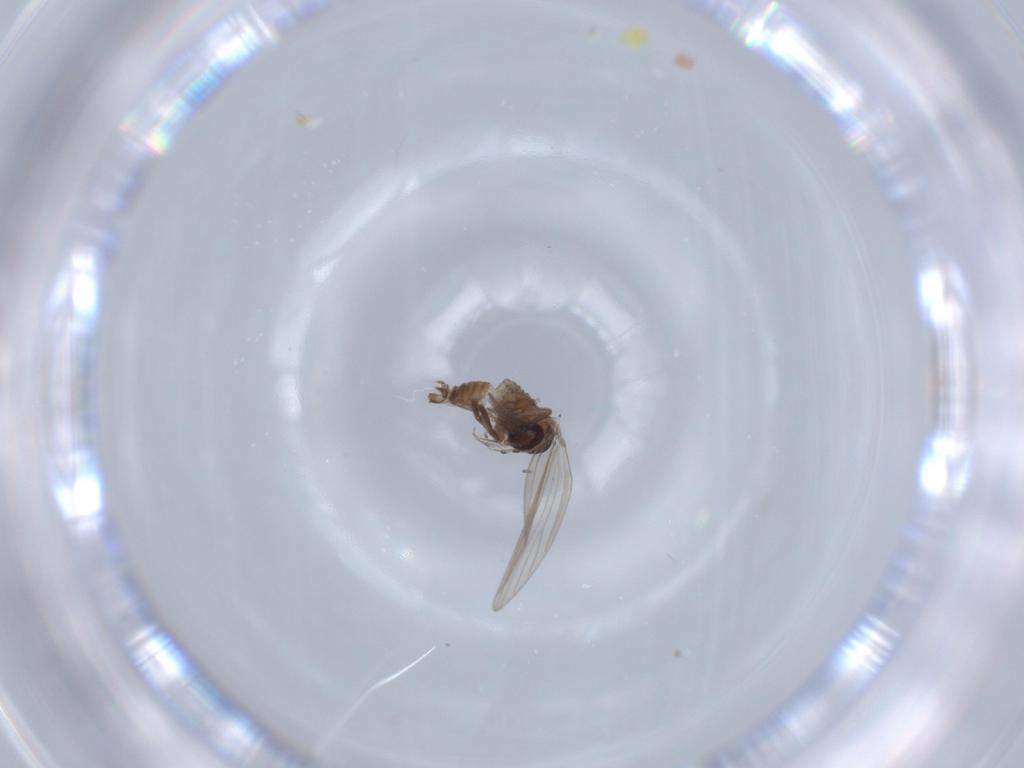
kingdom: Animalia
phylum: Arthropoda
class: Insecta
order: Diptera
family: Psychodidae
